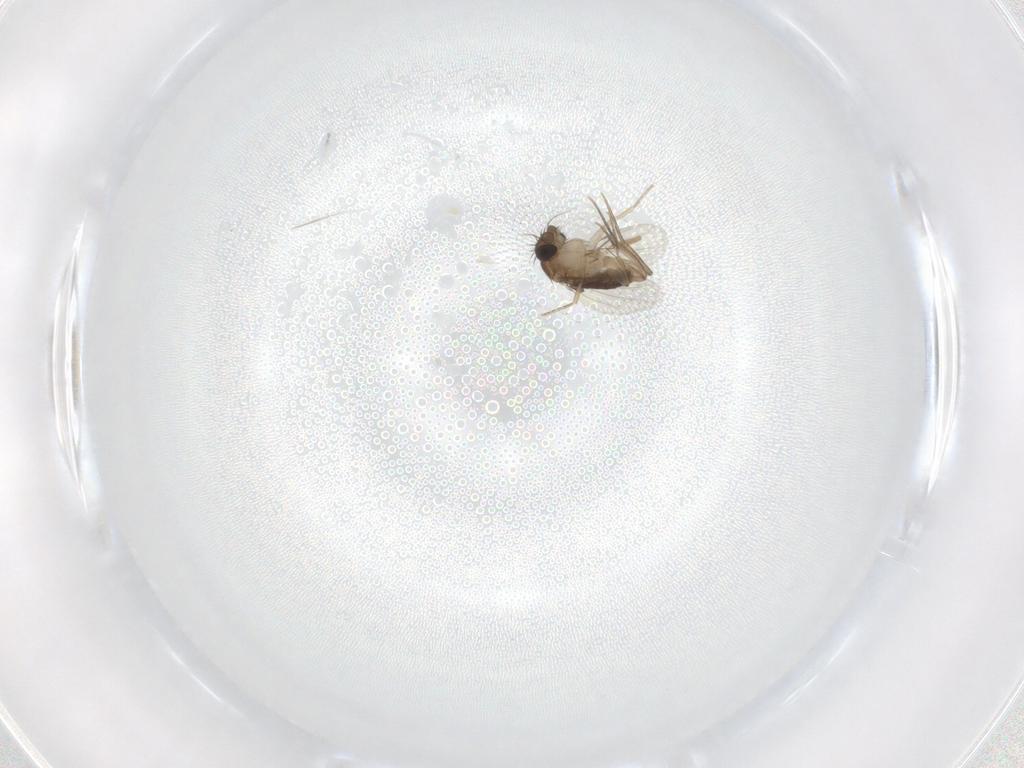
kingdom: Animalia
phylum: Arthropoda
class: Insecta
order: Diptera
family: Phoridae
